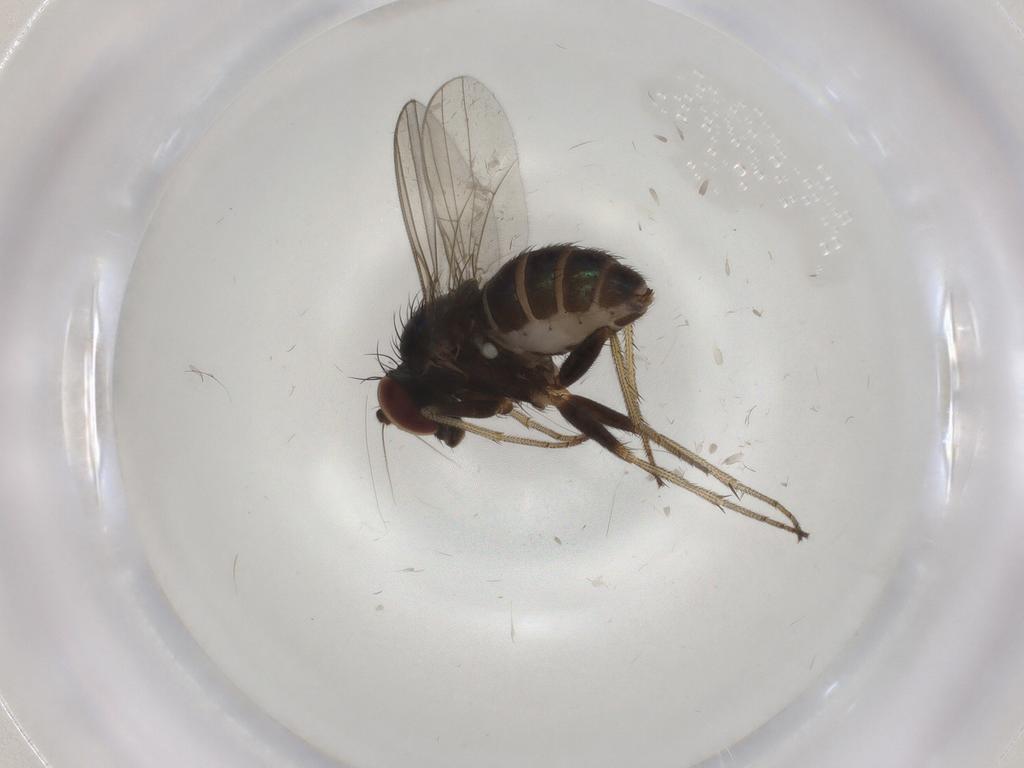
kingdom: Animalia
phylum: Arthropoda
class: Insecta
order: Diptera
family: Dolichopodidae
